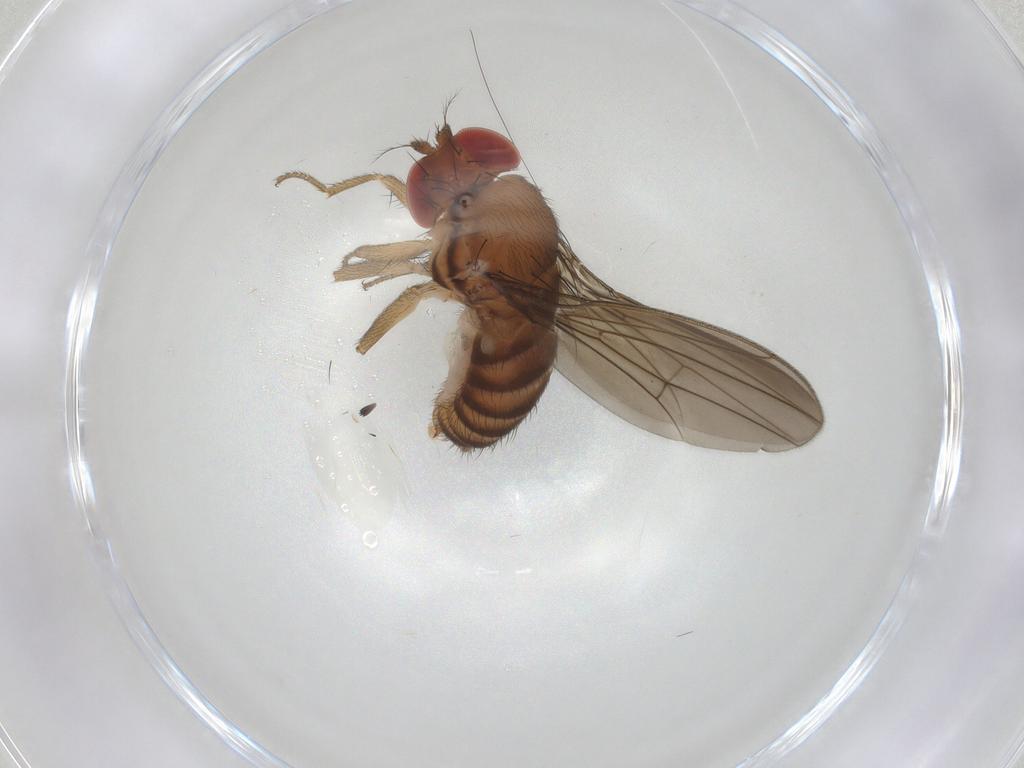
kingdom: Animalia
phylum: Arthropoda
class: Insecta
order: Diptera
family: Drosophilidae
